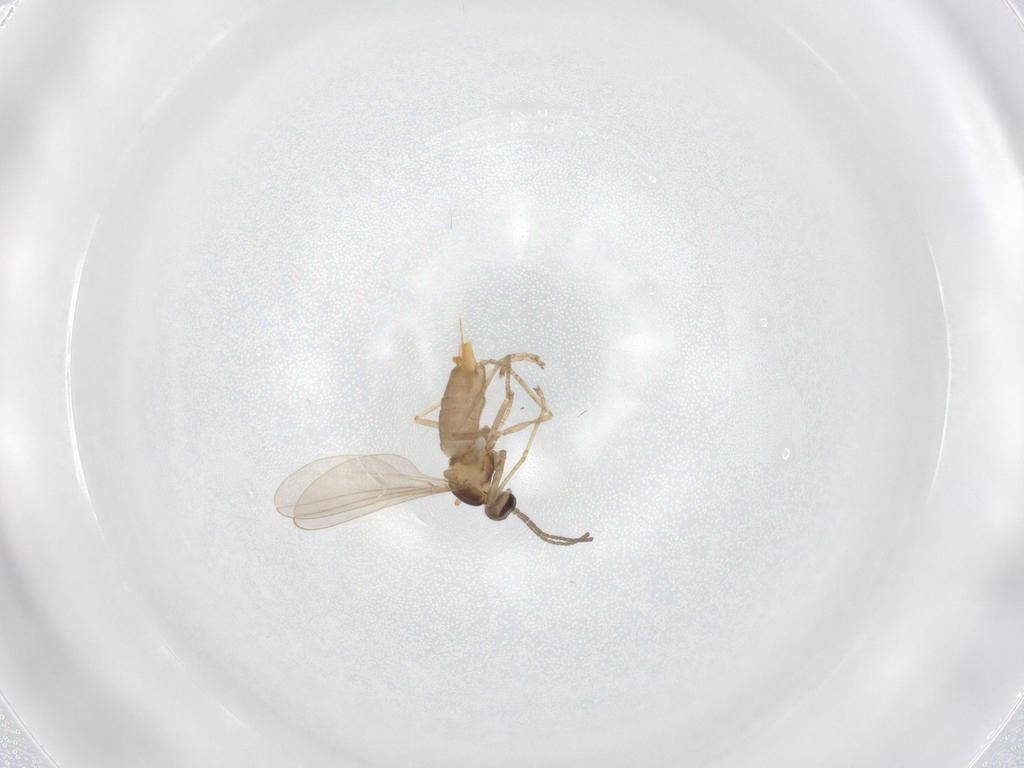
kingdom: Animalia
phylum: Arthropoda
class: Insecta
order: Diptera
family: Cecidomyiidae
